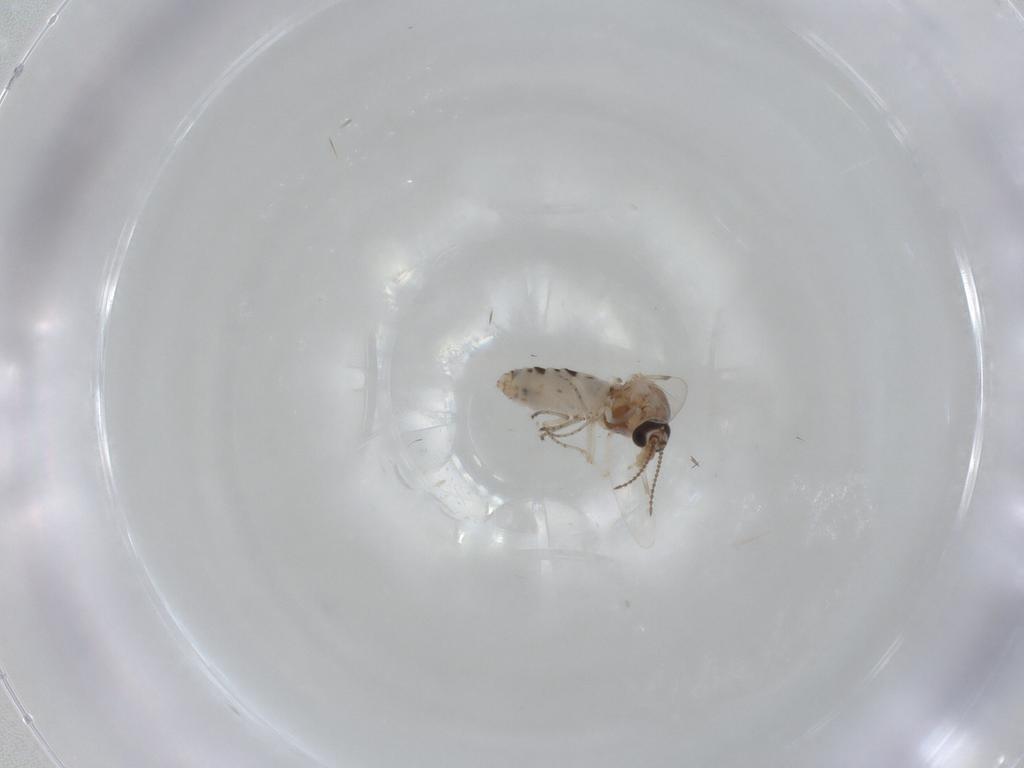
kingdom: Animalia
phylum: Arthropoda
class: Insecta
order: Diptera
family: Ceratopogonidae
